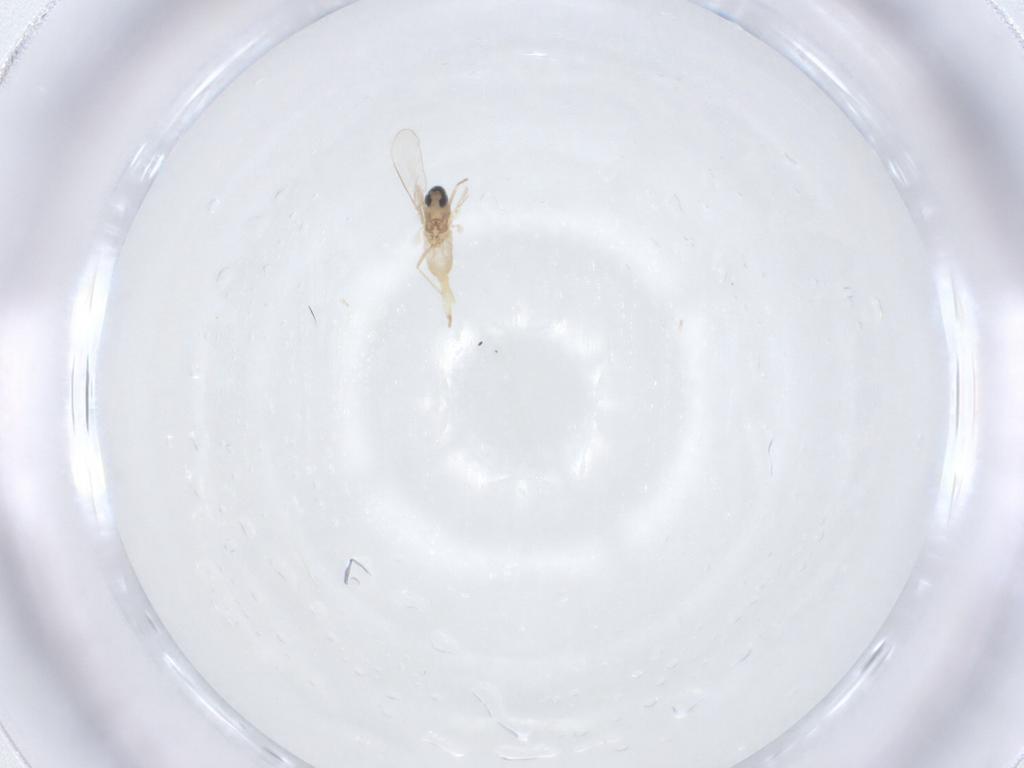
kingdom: Animalia
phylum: Arthropoda
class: Insecta
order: Diptera
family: Cecidomyiidae
